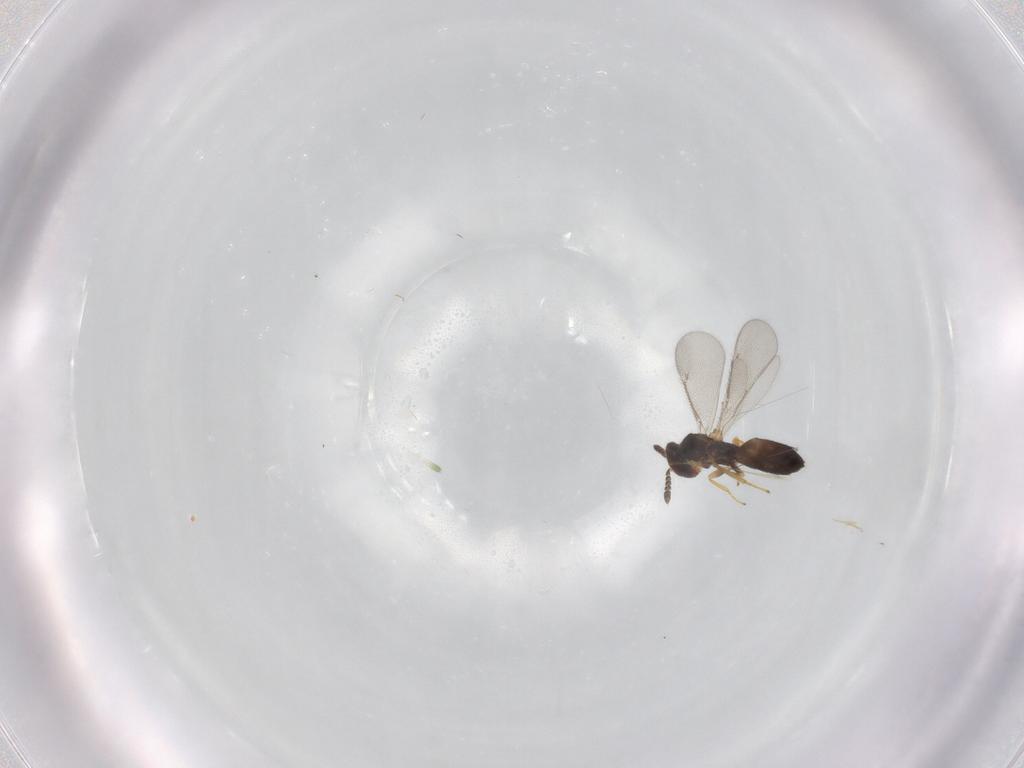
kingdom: Animalia
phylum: Arthropoda
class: Insecta
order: Hymenoptera
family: Eulophidae
